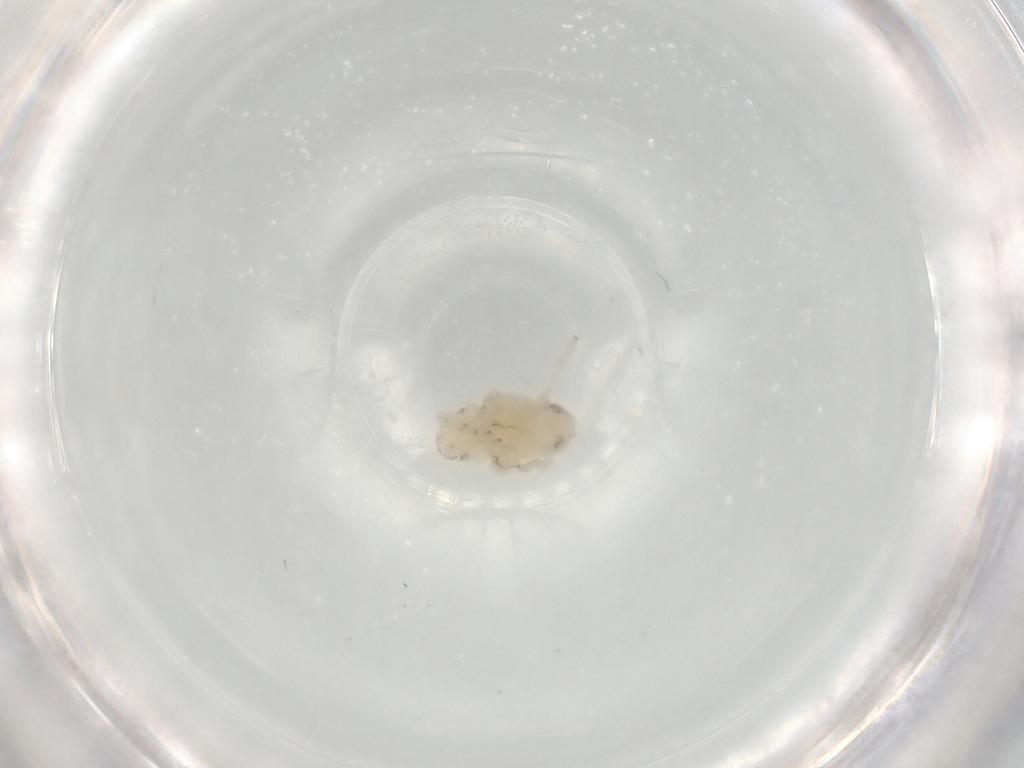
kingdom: Animalia
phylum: Arthropoda
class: Insecta
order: Hemiptera
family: Nogodinidae
